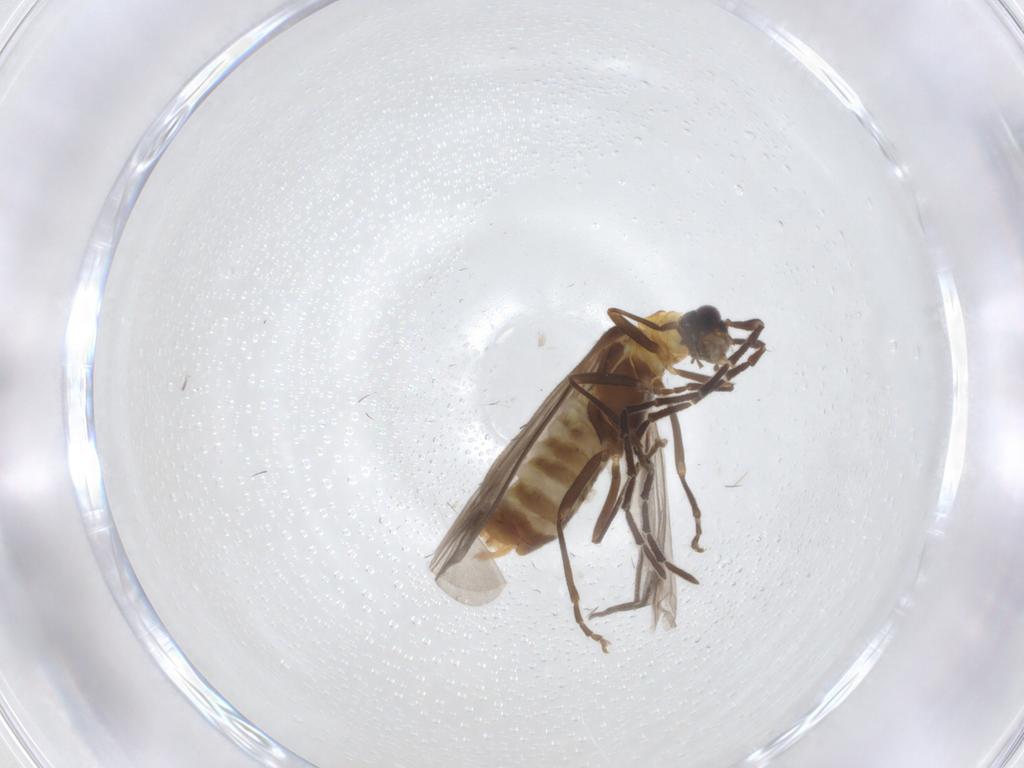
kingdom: Animalia
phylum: Arthropoda
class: Insecta
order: Coleoptera
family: Cantharidae
